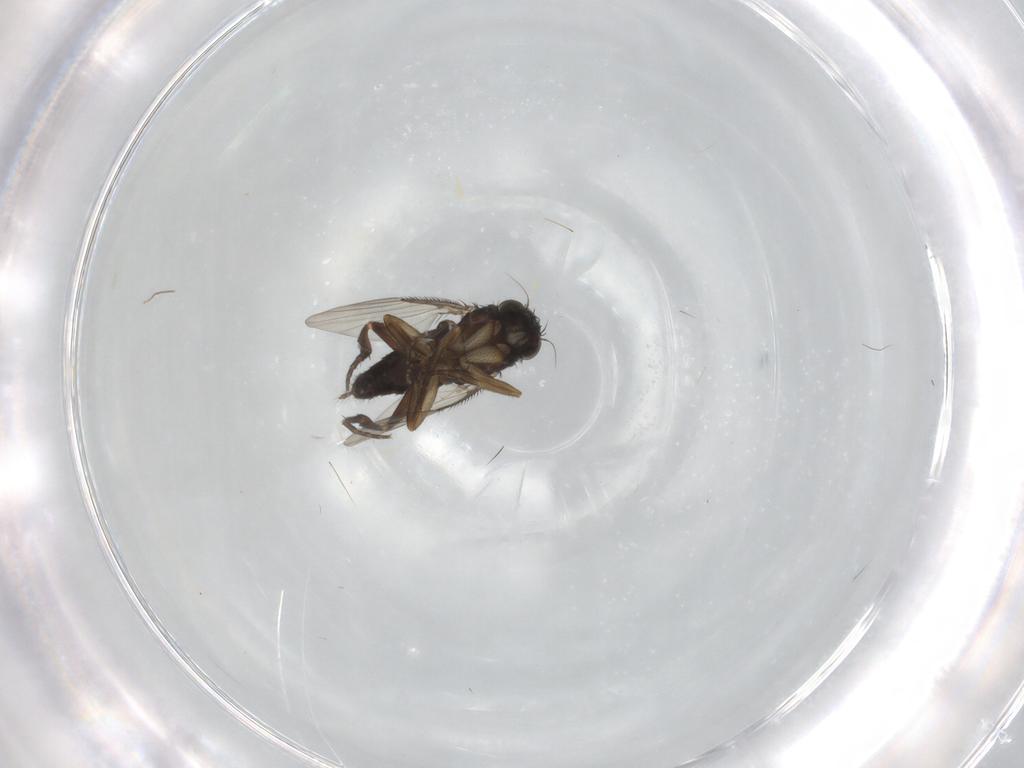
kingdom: Animalia
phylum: Arthropoda
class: Insecta
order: Diptera
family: Phoridae
